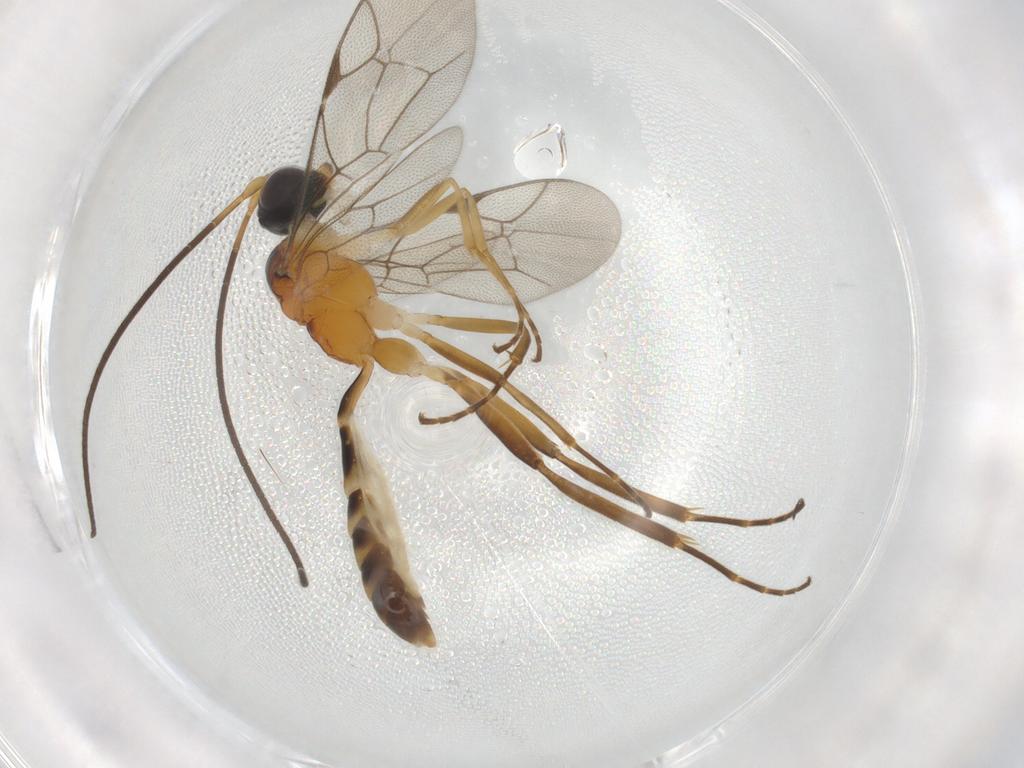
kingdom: Animalia
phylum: Arthropoda
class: Insecta
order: Hymenoptera
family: Ichneumonidae
